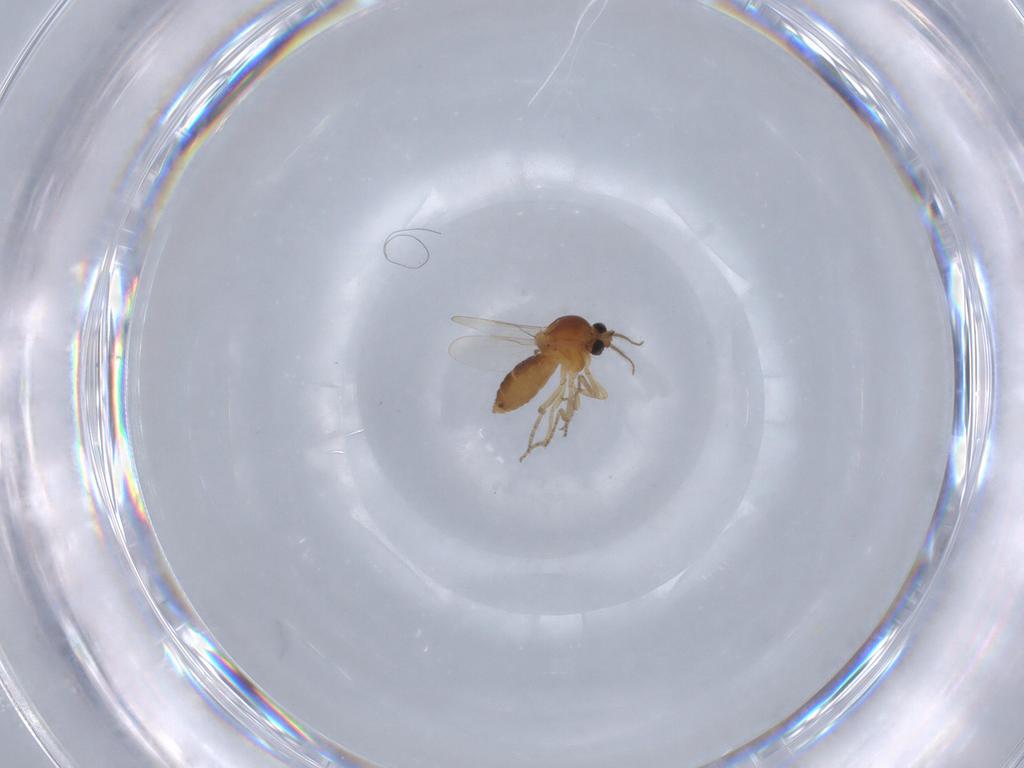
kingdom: Animalia
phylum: Arthropoda
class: Insecta
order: Diptera
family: Ceratopogonidae
